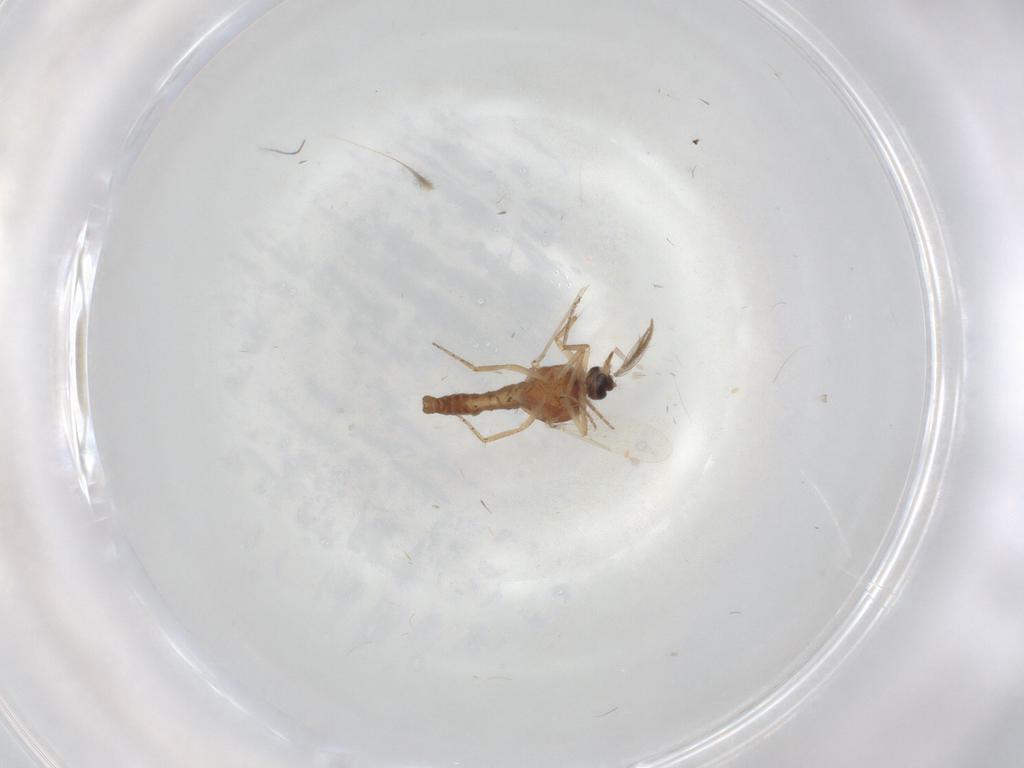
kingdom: Animalia
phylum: Arthropoda
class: Insecta
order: Diptera
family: Ceratopogonidae
